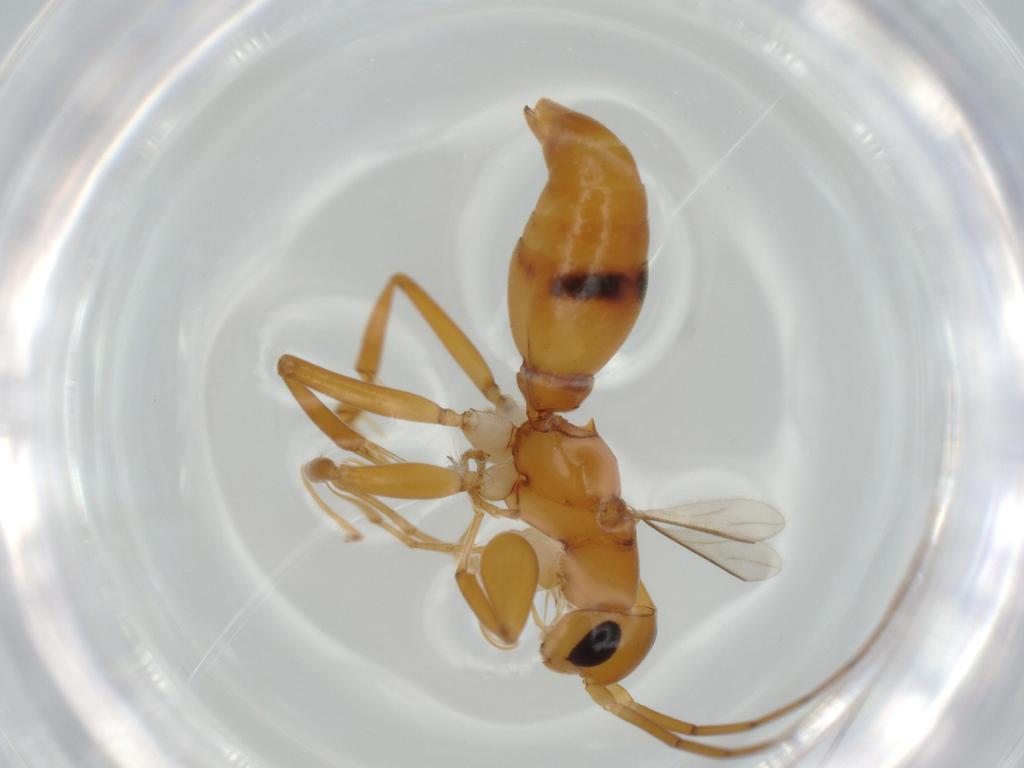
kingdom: Animalia
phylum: Arthropoda
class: Insecta
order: Hymenoptera
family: Rhopalosomatidae
